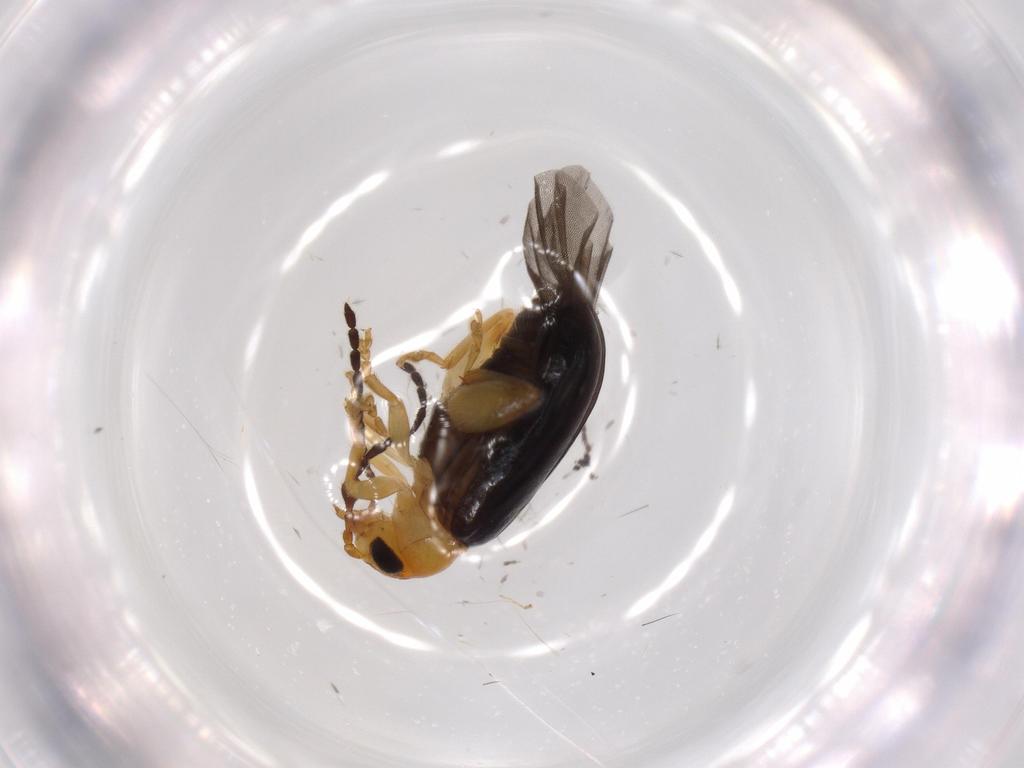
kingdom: Animalia
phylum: Arthropoda
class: Insecta
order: Coleoptera
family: Chrysomelidae
